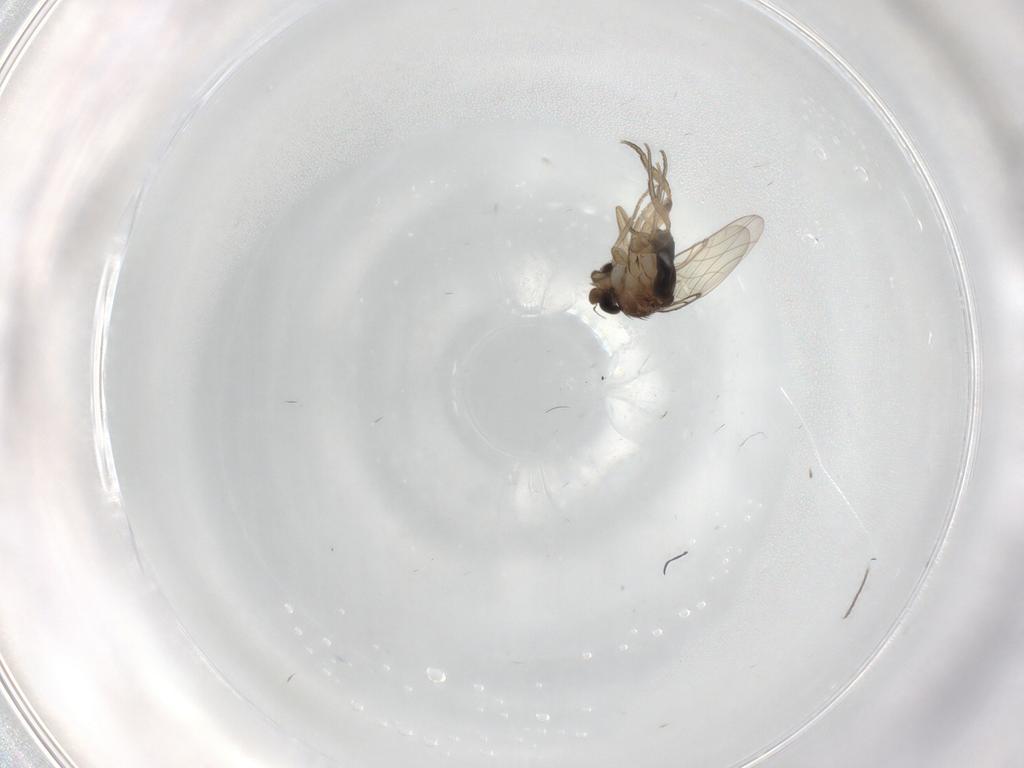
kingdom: Animalia
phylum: Arthropoda
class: Insecta
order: Diptera
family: Phoridae
